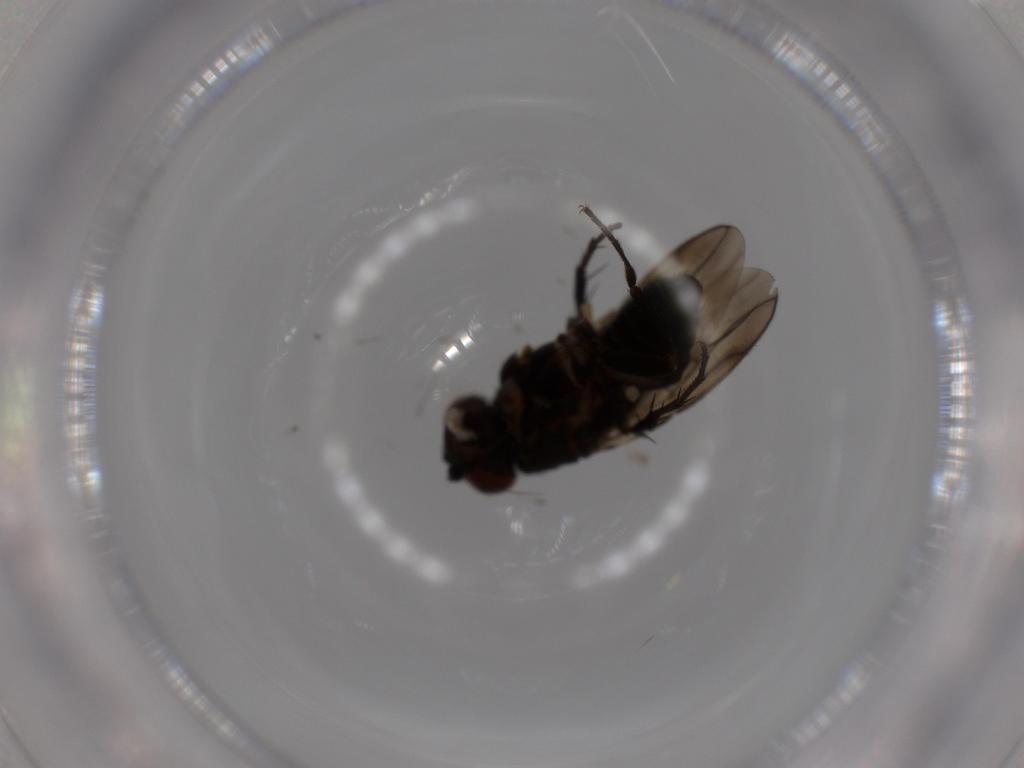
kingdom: Animalia
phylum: Arthropoda
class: Insecta
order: Diptera
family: Sphaeroceridae
